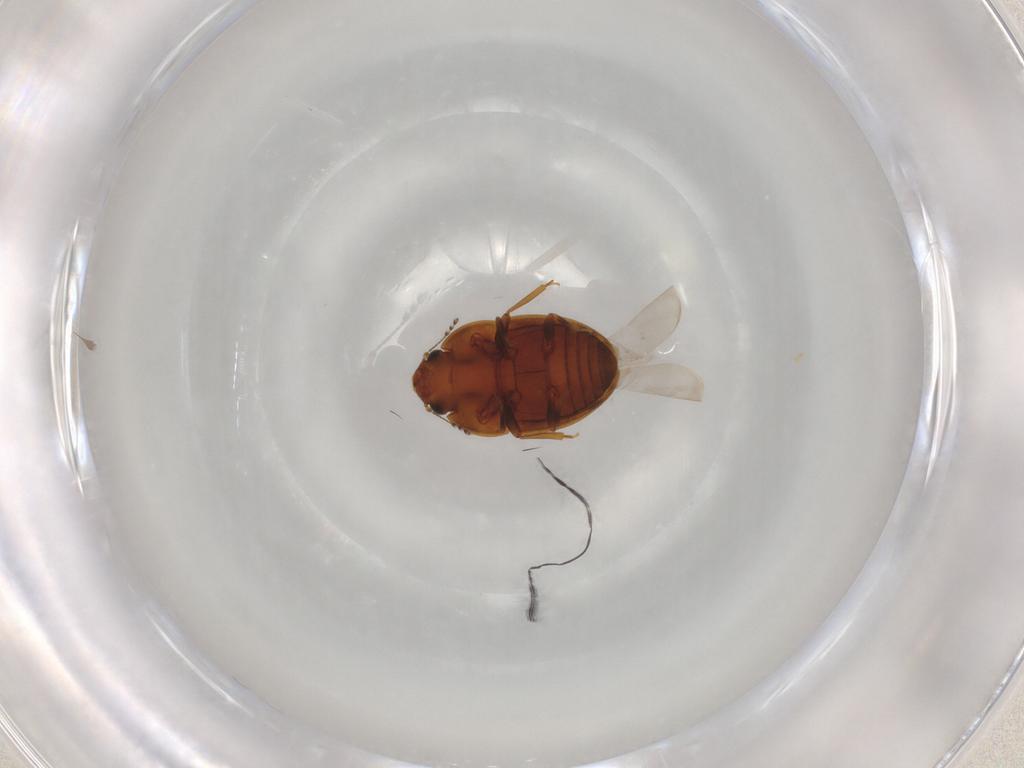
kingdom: Animalia
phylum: Arthropoda
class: Insecta
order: Coleoptera
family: Laemophloeidae
